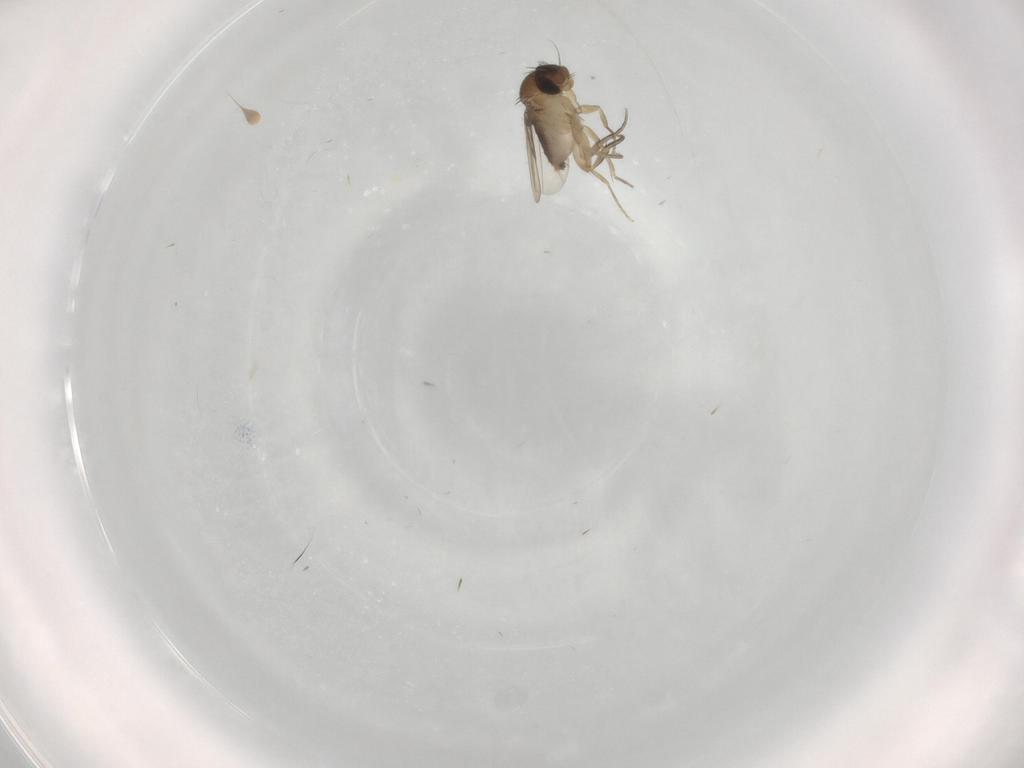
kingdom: Animalia
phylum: Arthropoda
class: Insecta
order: Diptera
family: Phoridae
